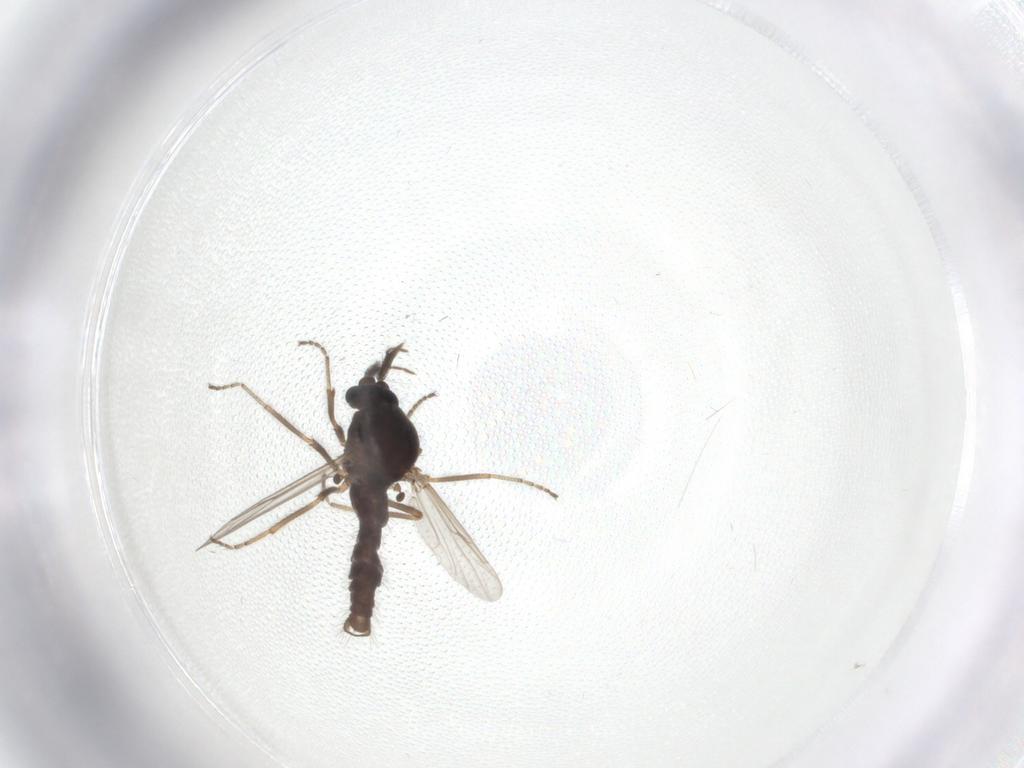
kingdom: Animalia
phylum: Arthropoda
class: Insecta
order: Diptera
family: Ceratopogonidae
